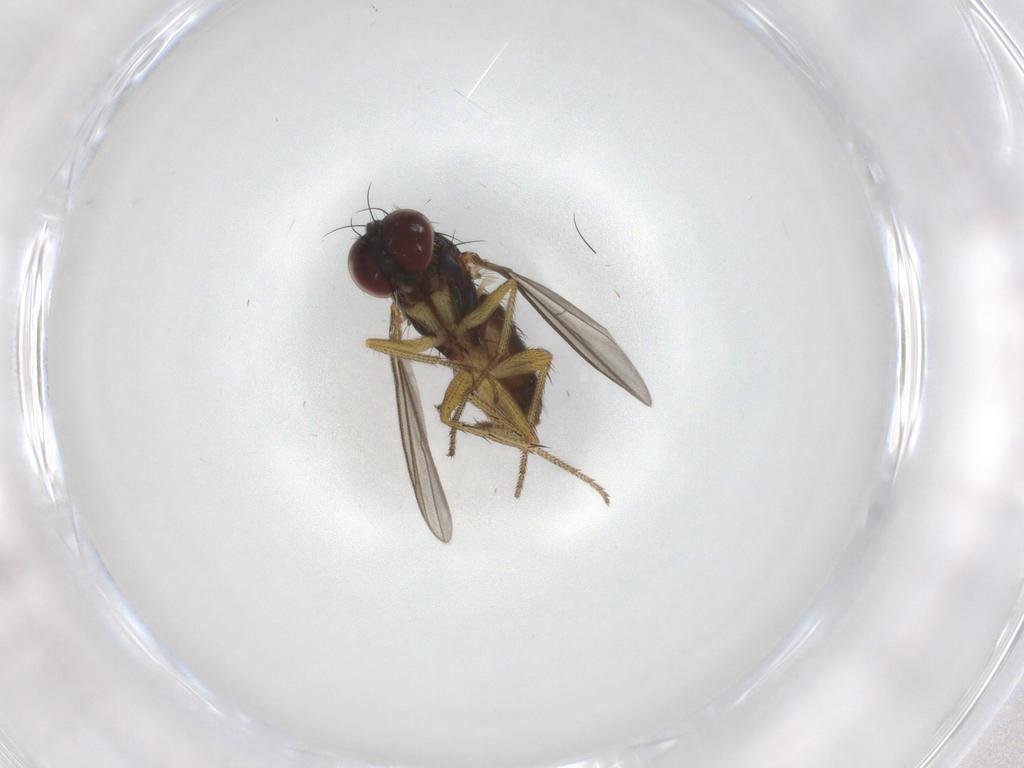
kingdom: Animalia
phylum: Arthropoda
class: Insecta
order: Diptera
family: Chironomidae
